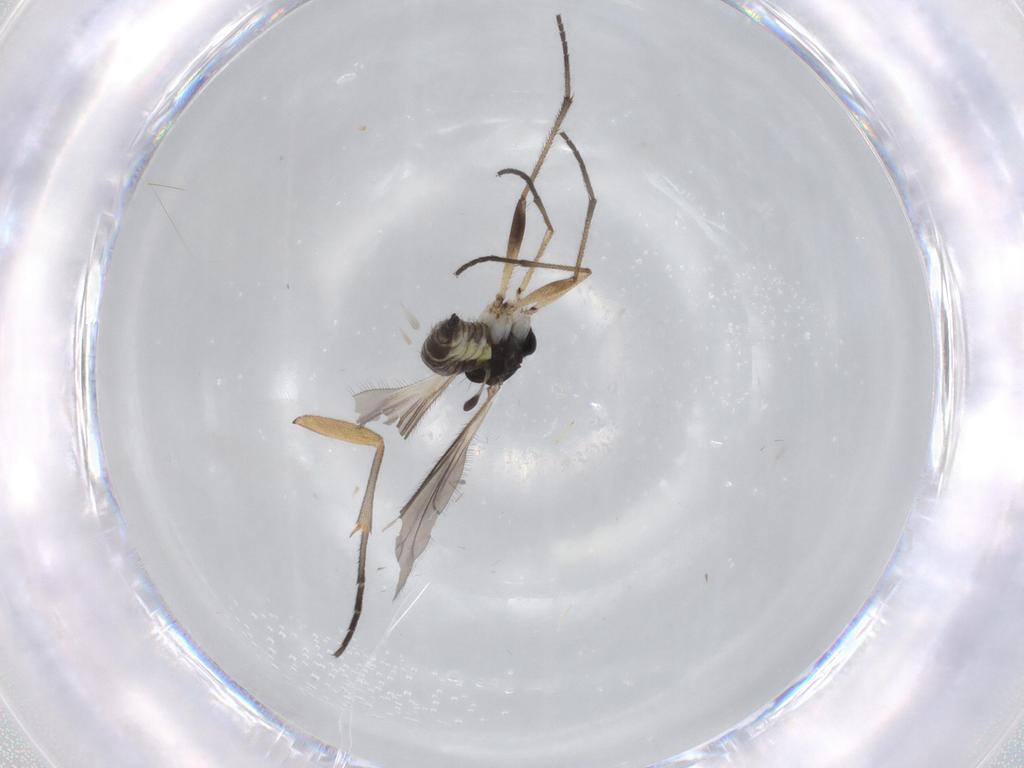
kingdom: Animalia
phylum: Arthropoda
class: Insecta
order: Diptera
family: Sciaridae
